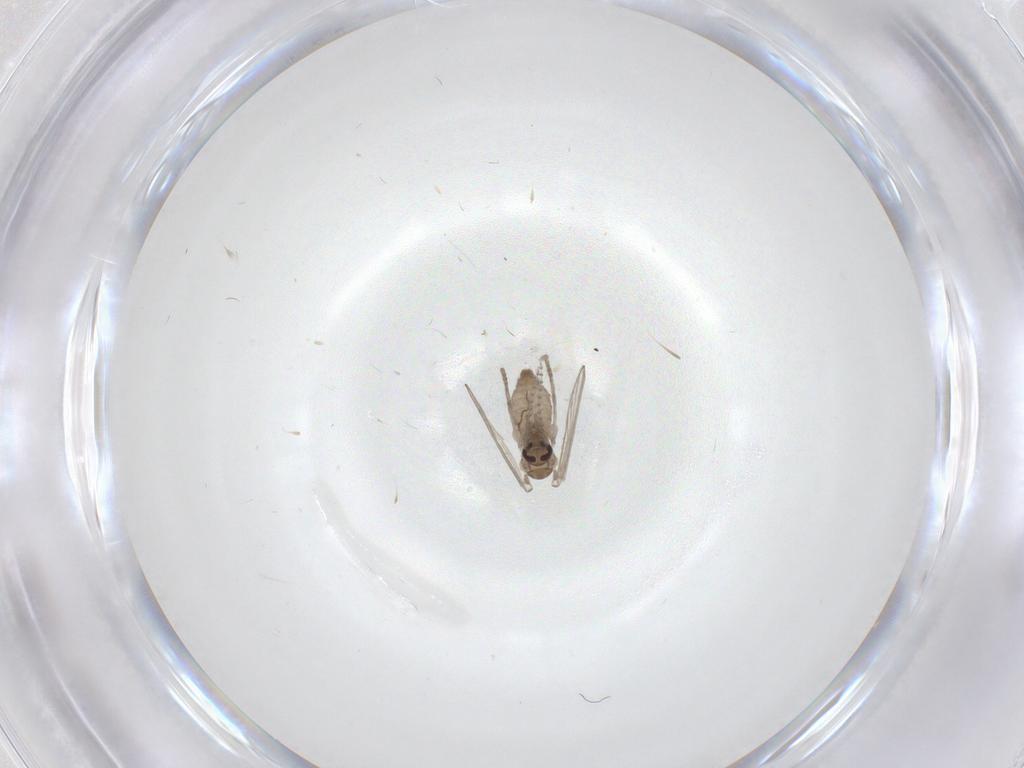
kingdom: Animalia
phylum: Arthropoda
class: Insecta
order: Diptera
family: Psychodidae
